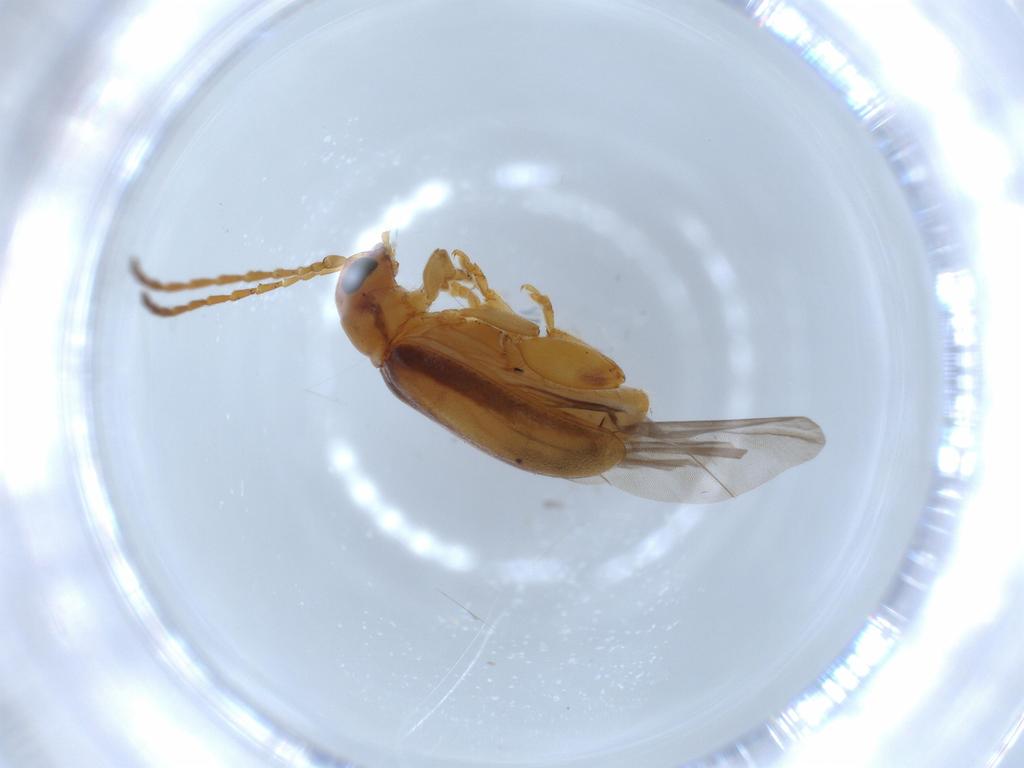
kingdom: Animalia
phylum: Arthropoda
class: Insecta
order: Coleoptera
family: Chrysomelidae
